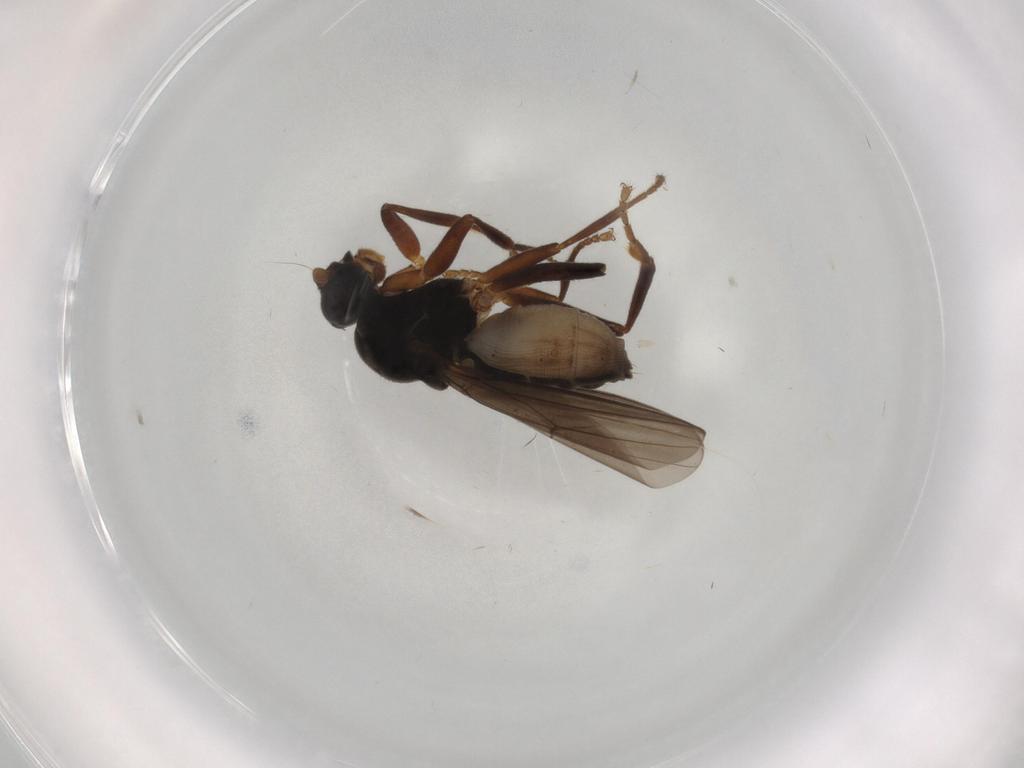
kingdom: Animalia
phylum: Arthropoda
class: Insecta
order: Diptera
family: Sphaeroceridae
